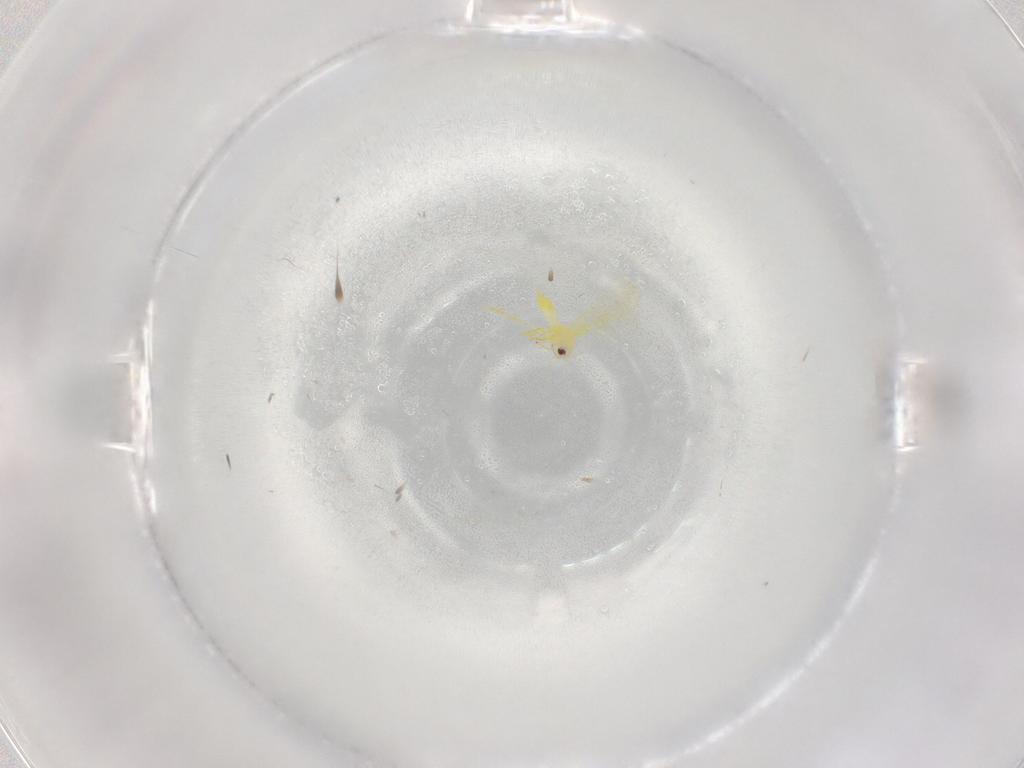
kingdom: Animalia
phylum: Arthropoda
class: Insecta
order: Hemiptera
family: Aleyrodidae
